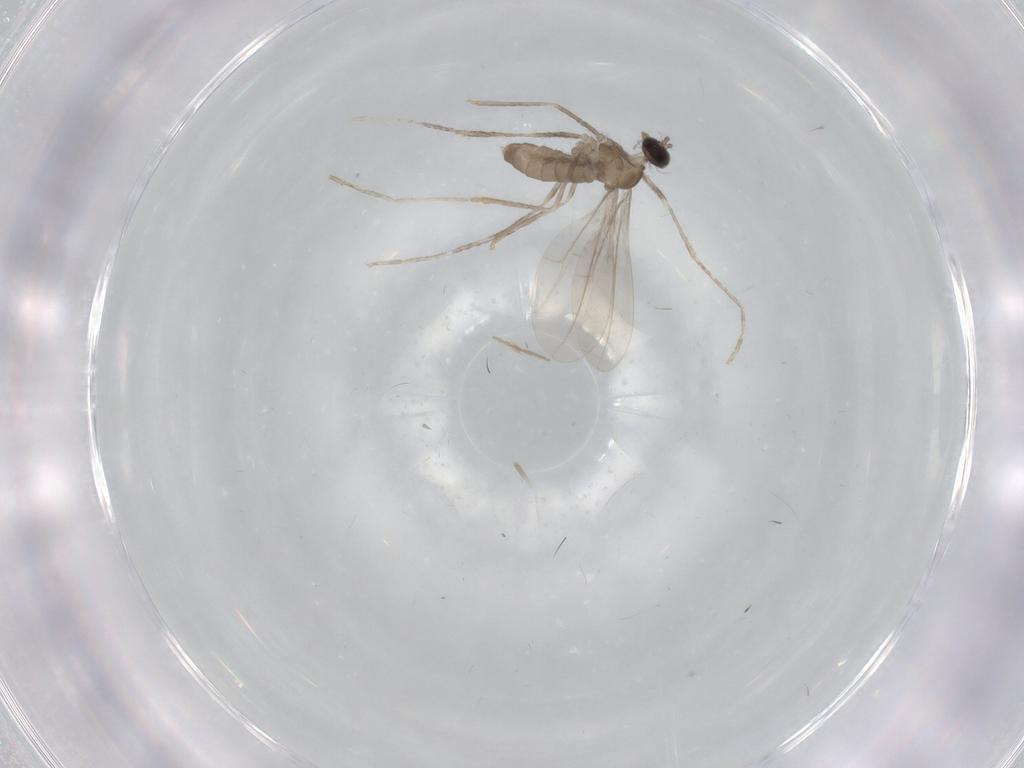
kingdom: Animalia
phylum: Arthropoda
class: Insecta
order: Diptera
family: Cecidomyiidae
